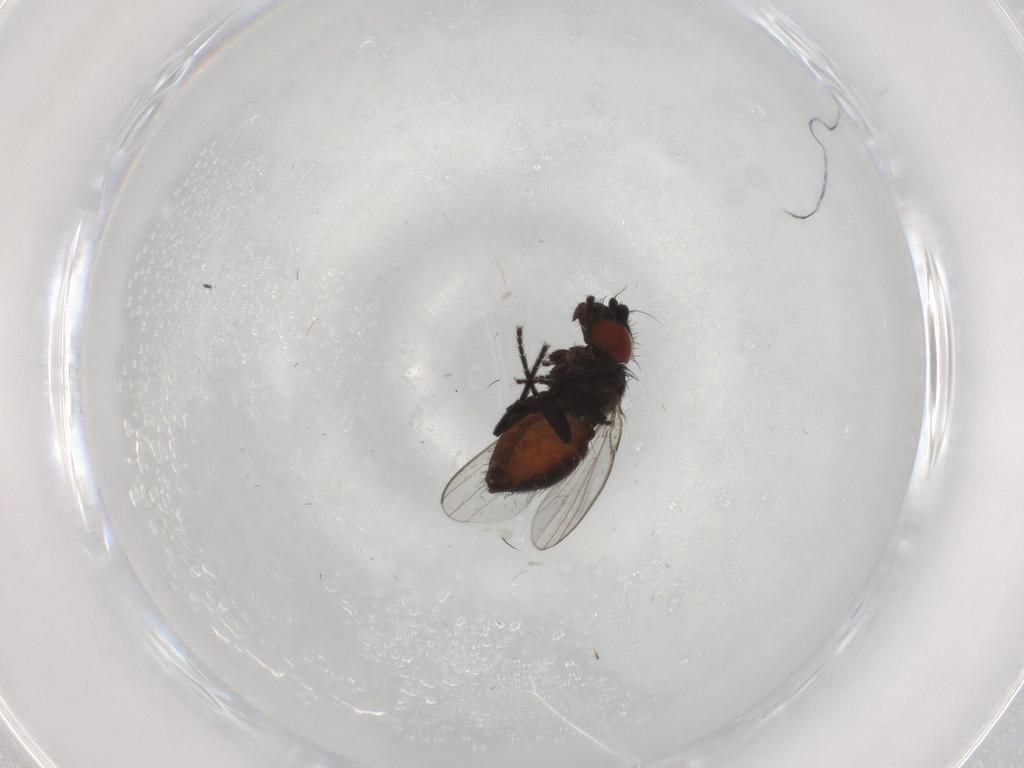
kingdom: Animalia
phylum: Arthropoda
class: Insecta
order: Diptera
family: Milichiidae
